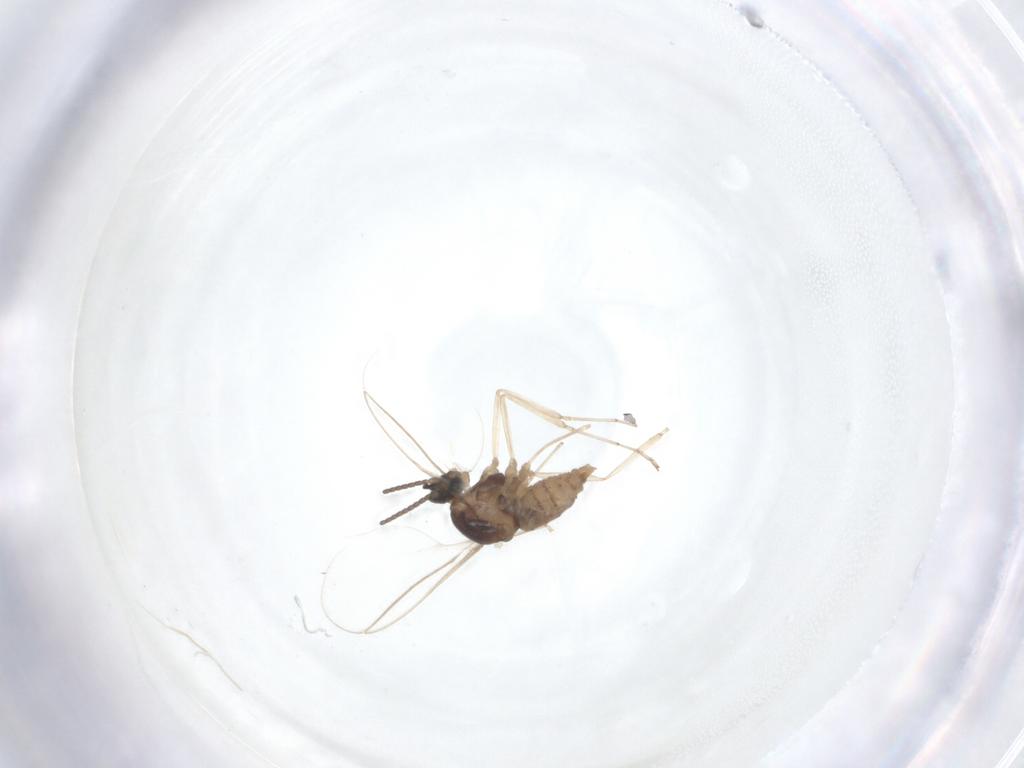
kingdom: Animalia
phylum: Arthropoda
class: Insecta
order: Diptera
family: Cecidomyiidae
